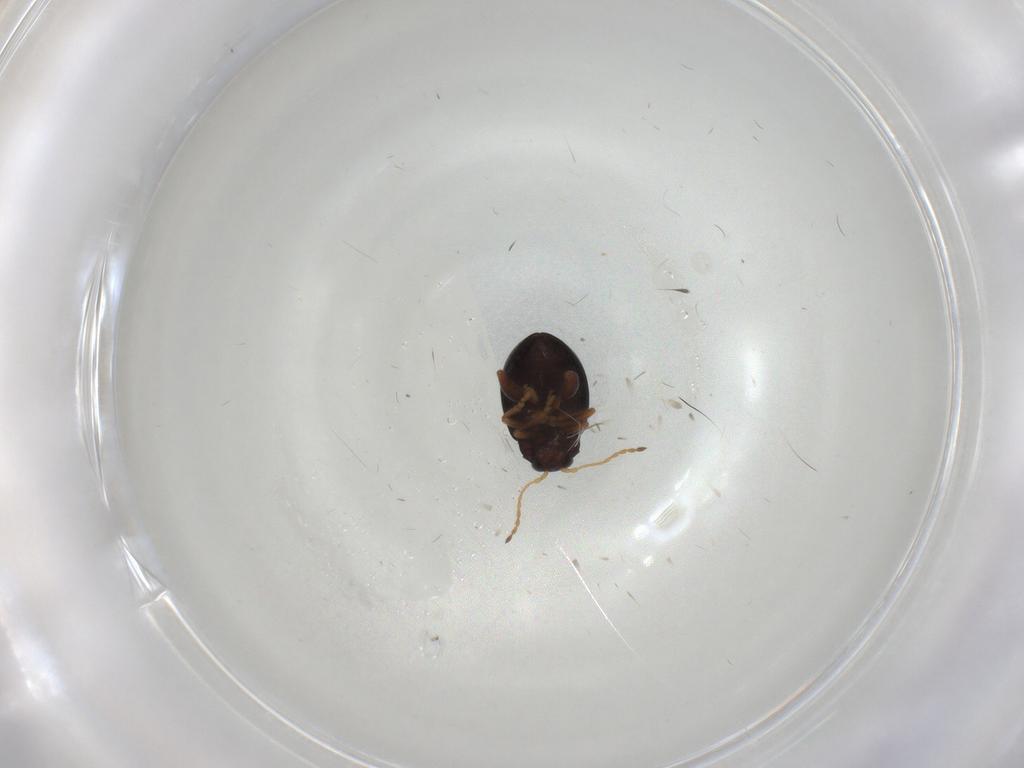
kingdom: Animalia
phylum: Arthropoda
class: Insecta
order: Coleoptera
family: Chrysomelidae
